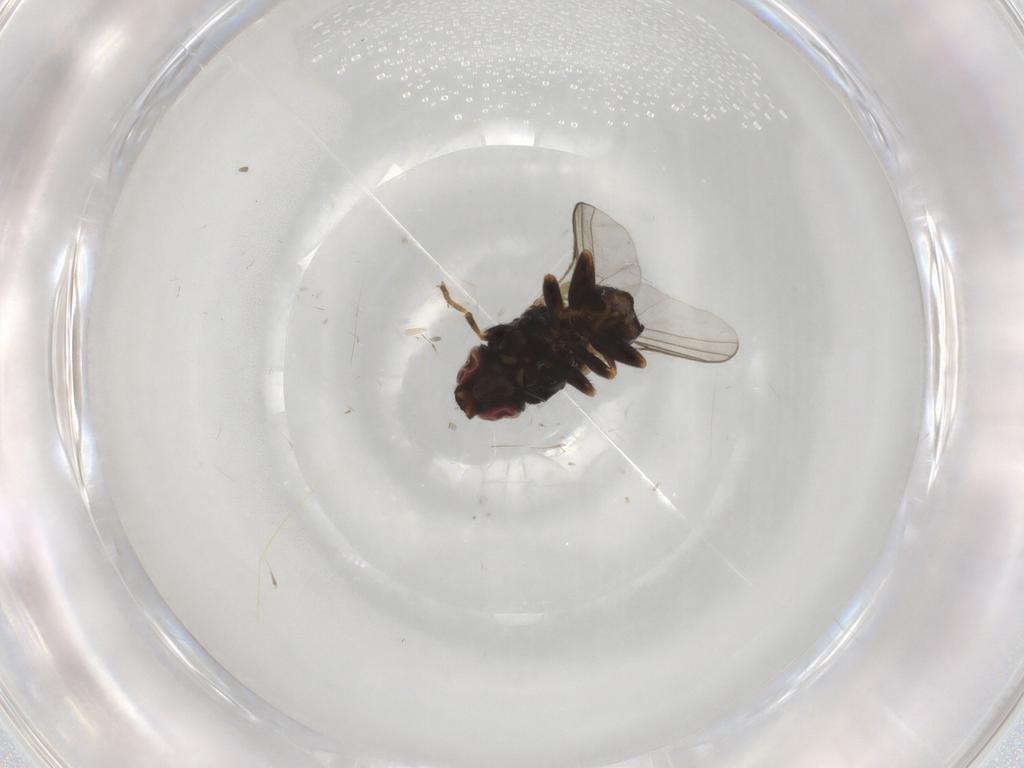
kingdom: Animalia
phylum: Arthropoda
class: Insecta
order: Diptera
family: Chloropidae
